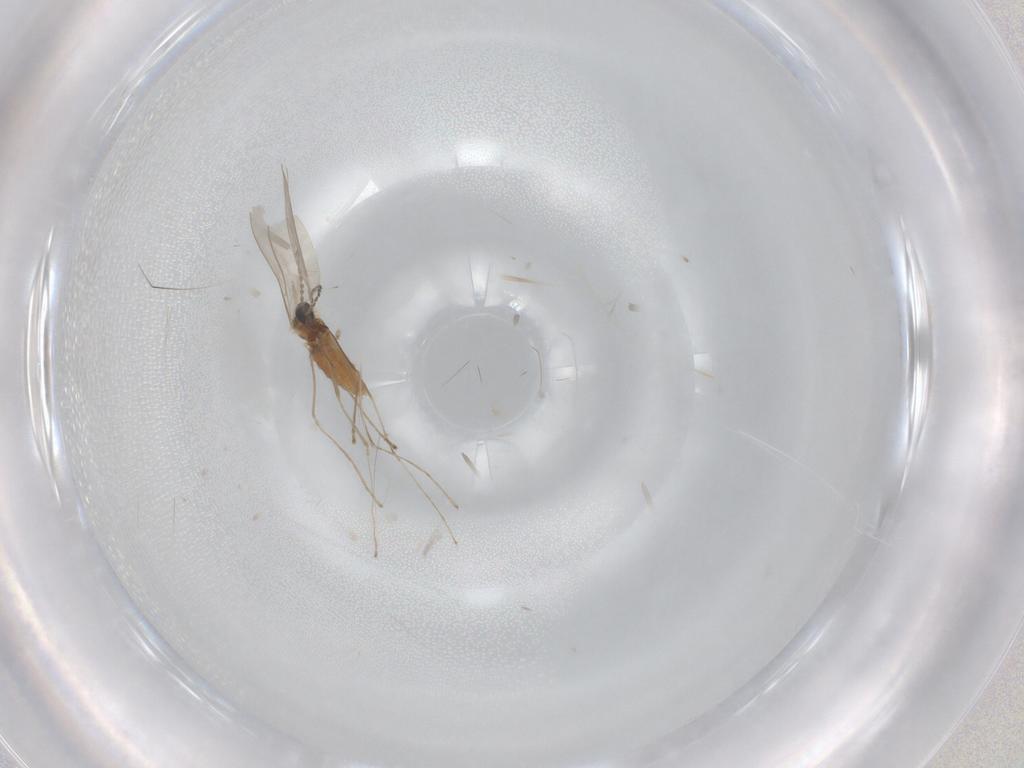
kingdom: Animalia
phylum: Arthropoda
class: Insecta
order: Diptera
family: Cecidomyiidae
